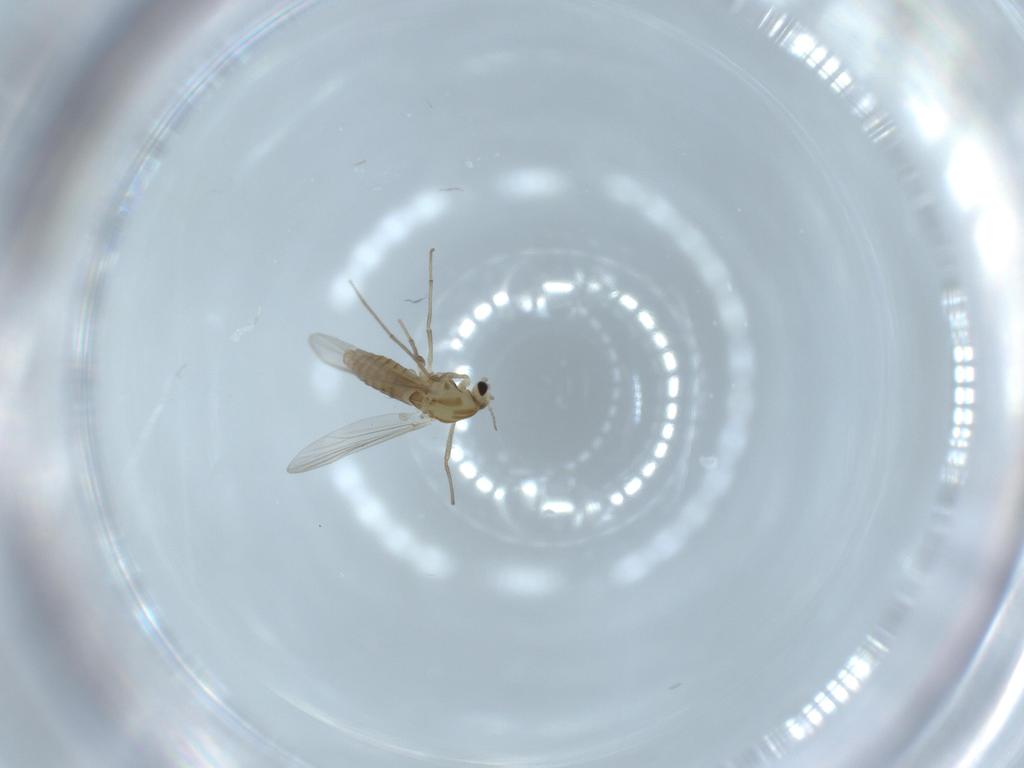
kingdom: Animalia
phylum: Arthropoda
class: Insecta
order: Diptera
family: Chironomidae
